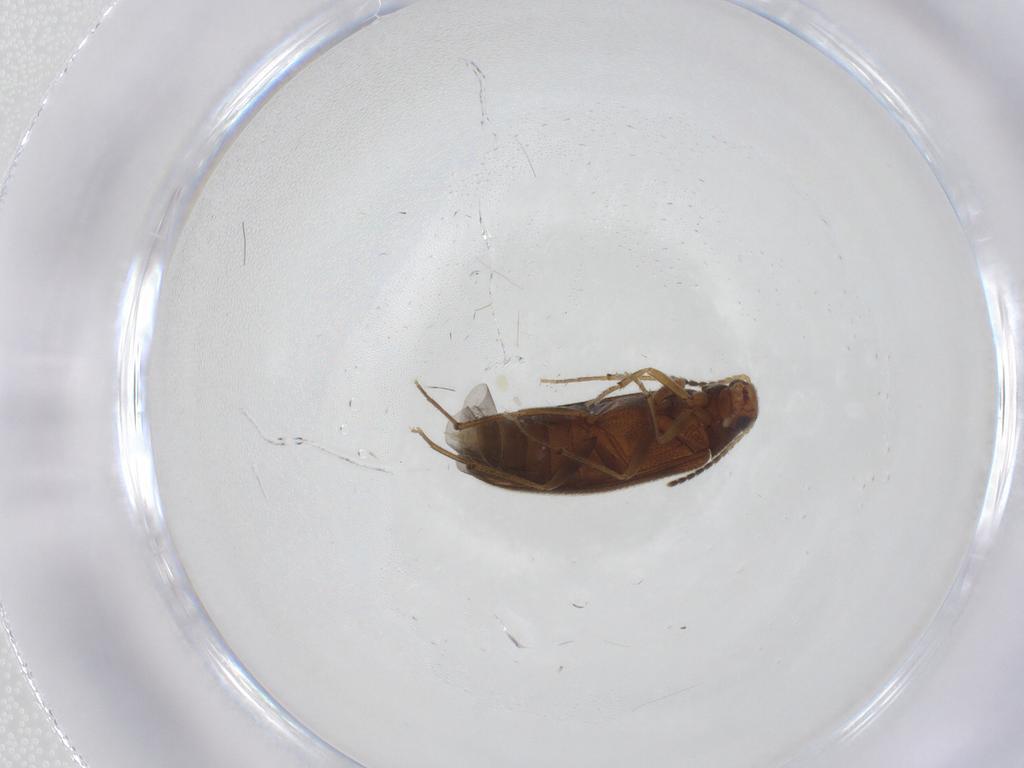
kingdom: Animalia
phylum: Arthropoda
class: Insecta
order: Coleoptera
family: Melandryidae
